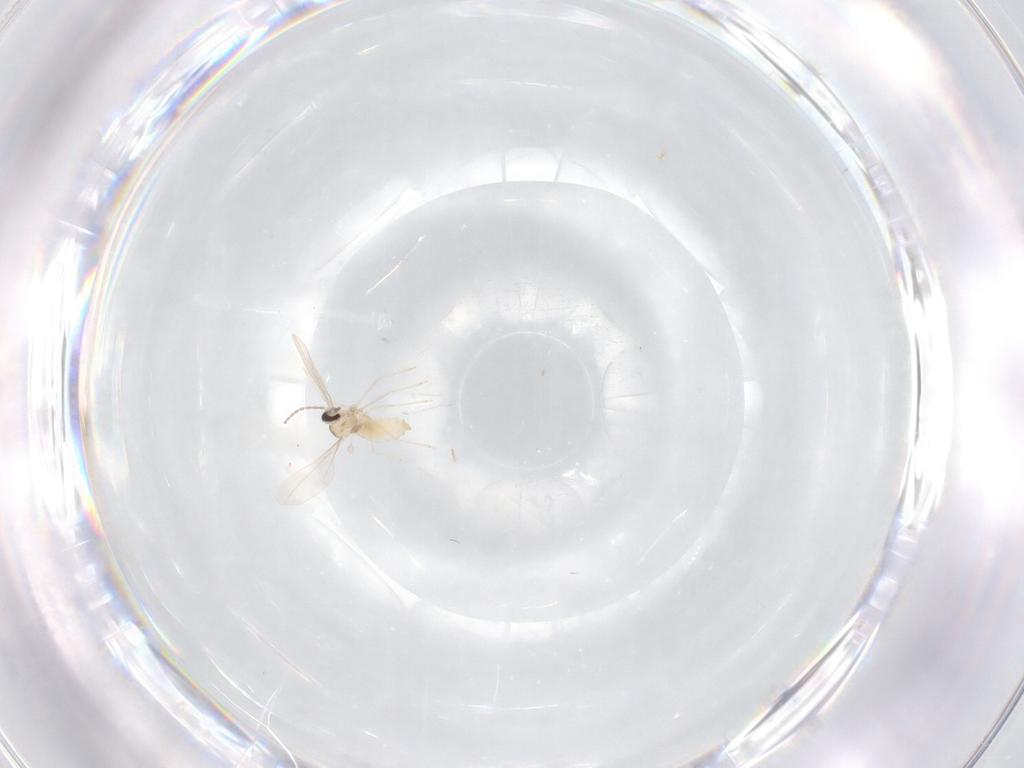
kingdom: Animalia
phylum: Arthropoda
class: Insecta
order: Diptera
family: Cecidomyiidae
